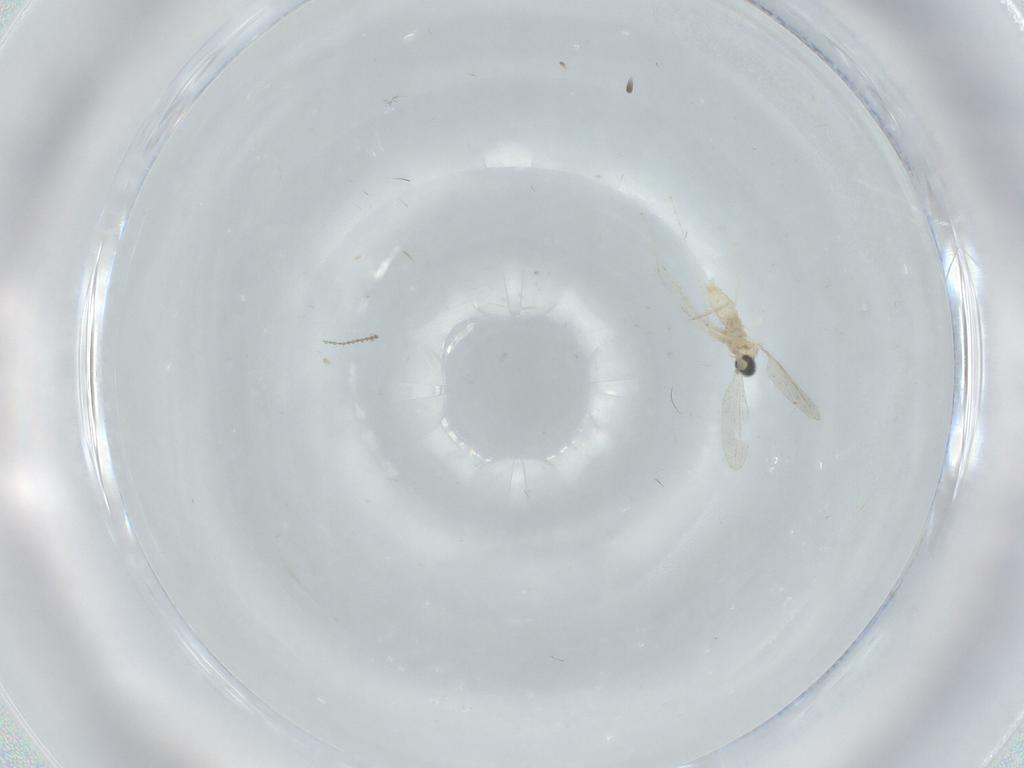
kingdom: Animalia
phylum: Arthropoda
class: Insecta
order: Diptera
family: Cecidomyiidae
